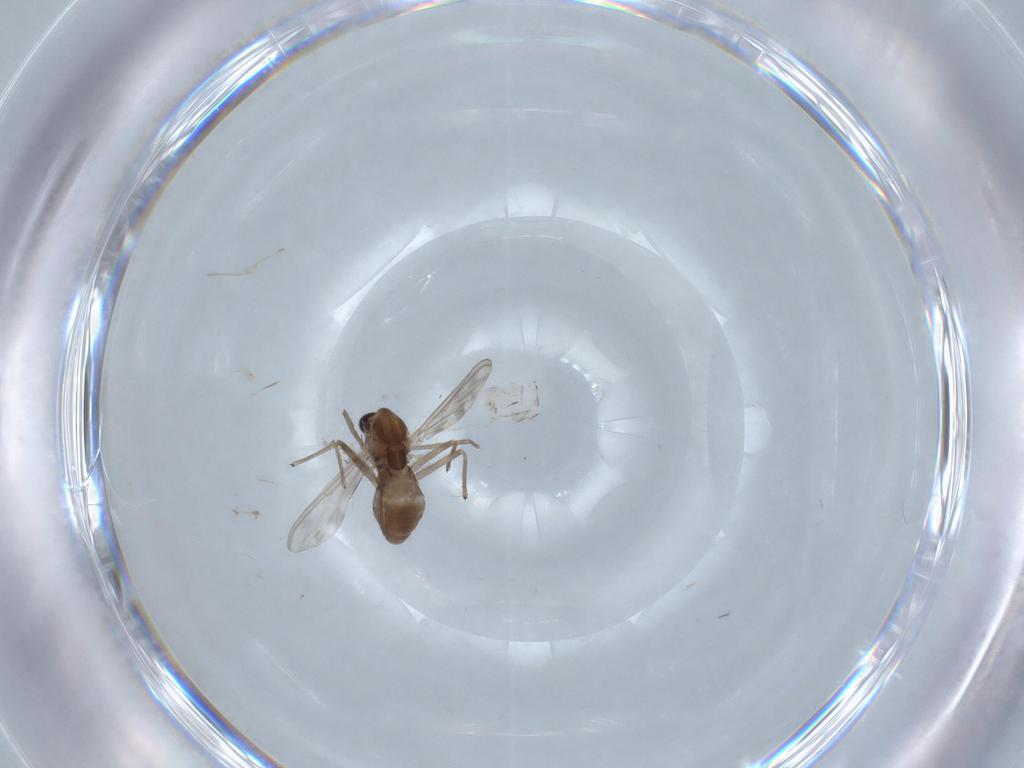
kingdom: Animalia
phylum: Arthropoda
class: Insecta
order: Diptera
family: Chironomidae
